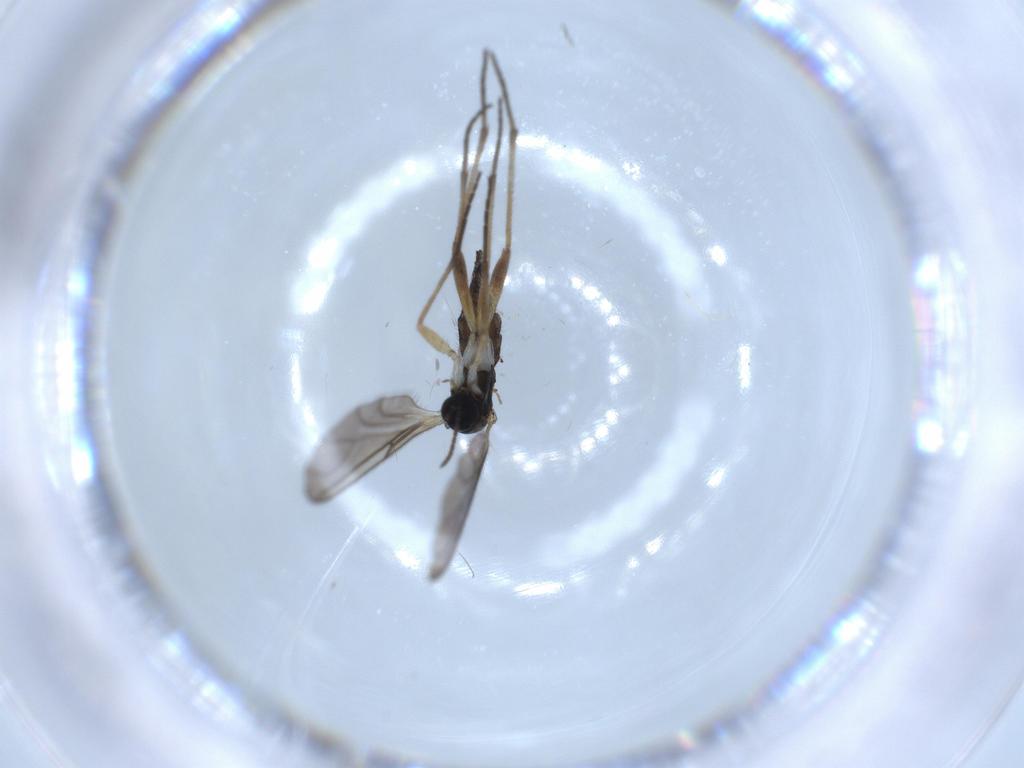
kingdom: Animalia
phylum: Arthropoda
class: Insecta
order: Diptera
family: Sciaridae
